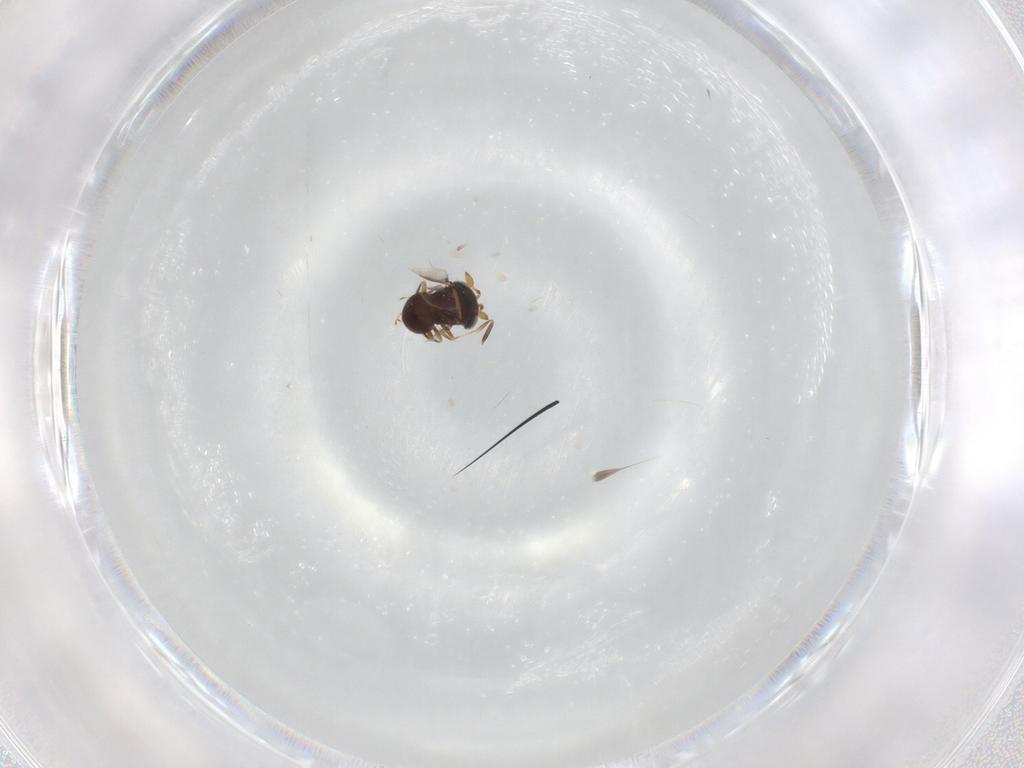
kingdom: Animalia
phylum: Arthropoda
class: Insecta
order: Hymenoptera
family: Scelionidae
